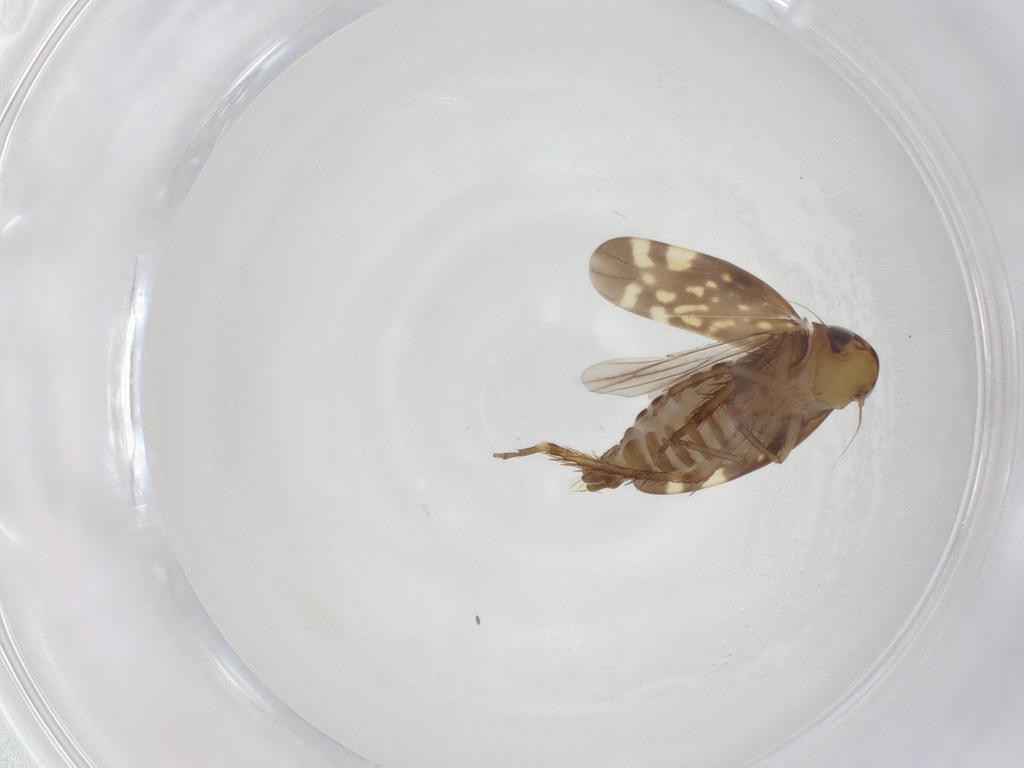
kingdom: Animalia
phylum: Arthropoda
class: Insecta
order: Hemiptera
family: Cicadellidae
